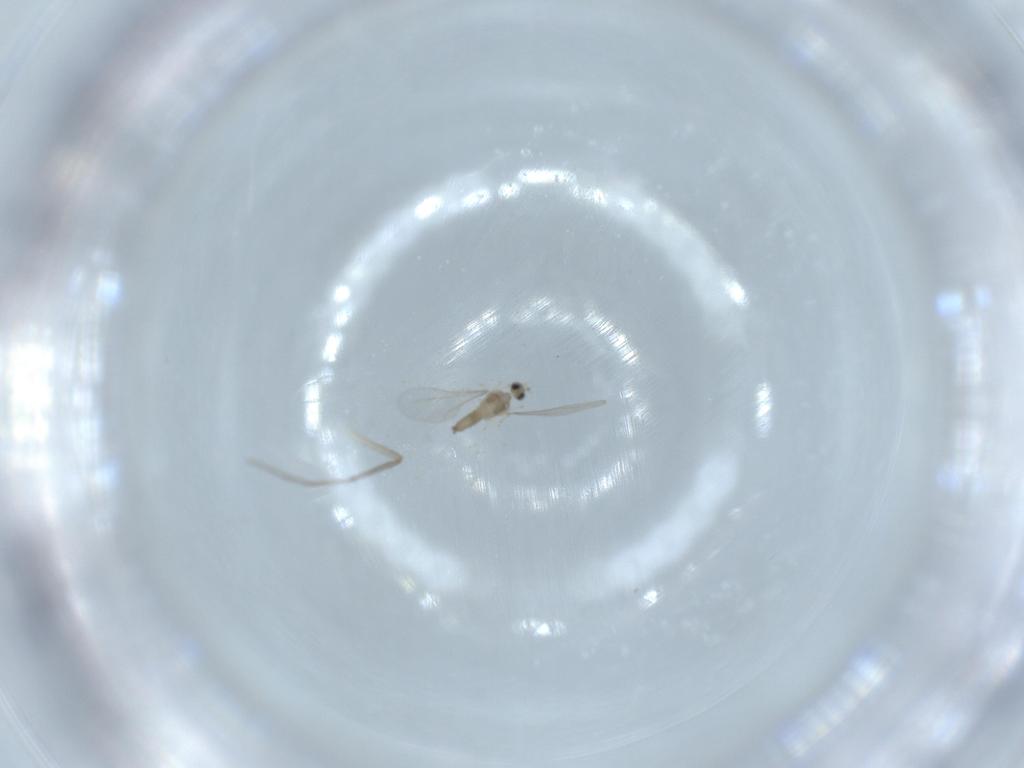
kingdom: Animalia
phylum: Arthropoda
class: Insecta
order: Diptera
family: Cecidomyiidae
